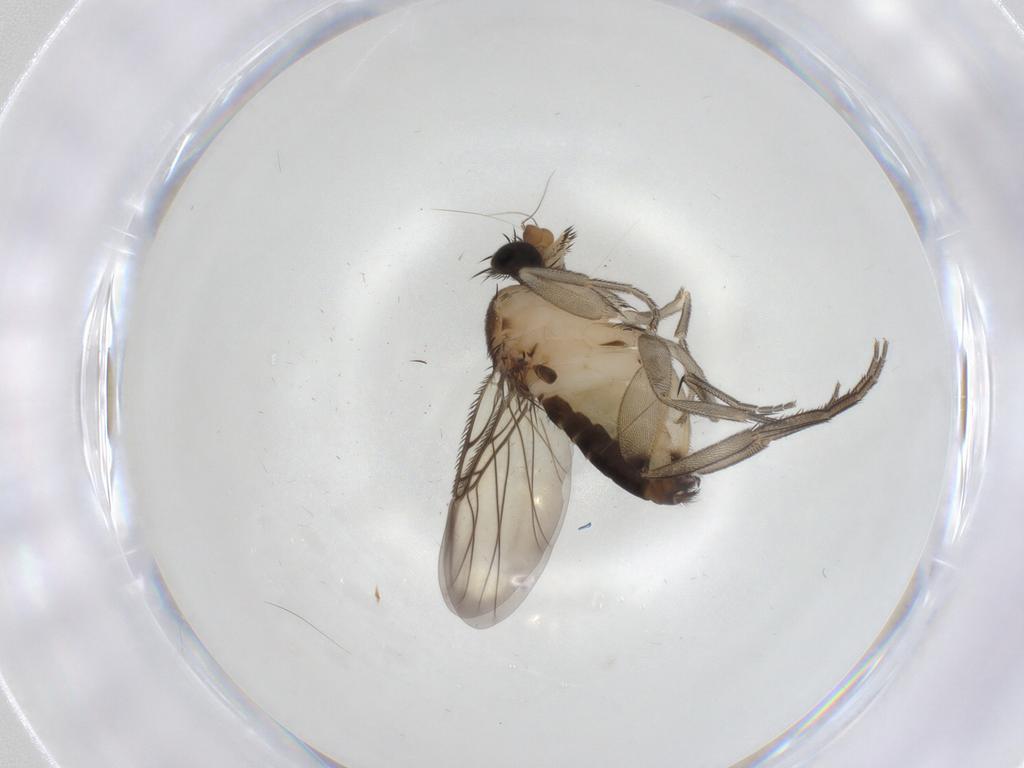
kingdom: Animalia
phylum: Arthropoda
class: Insecta
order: Diptera
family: Phoridae
